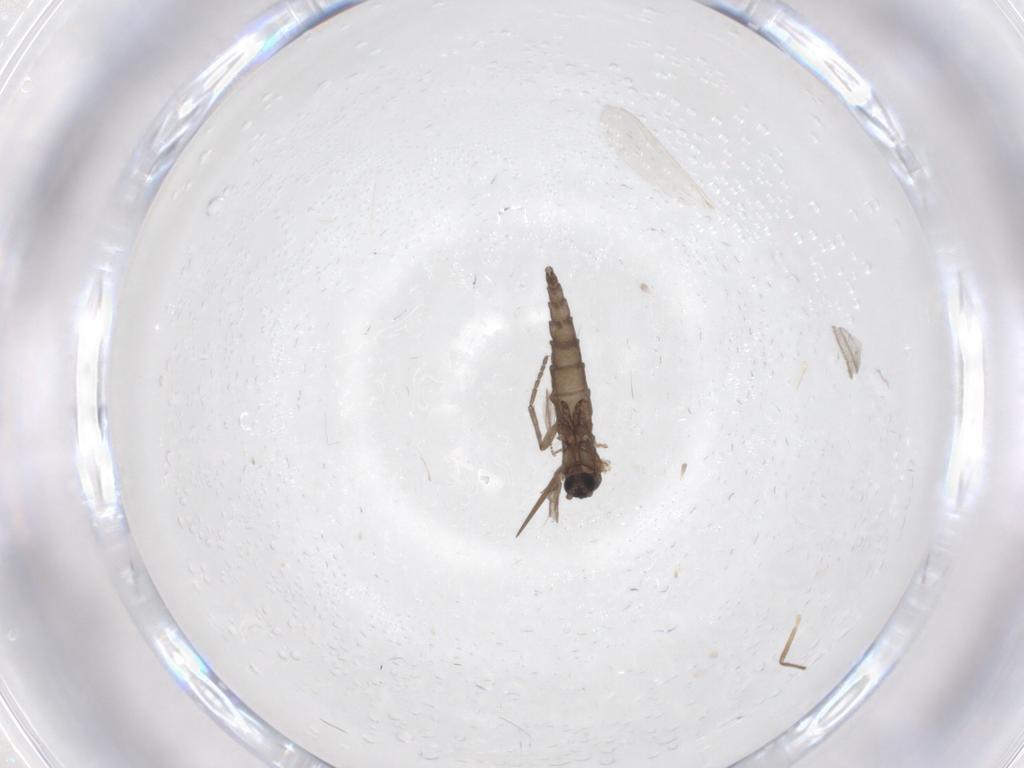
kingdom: Animalia
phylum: Arthropoda
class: Insecta
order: Diptera
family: Sciaridae
